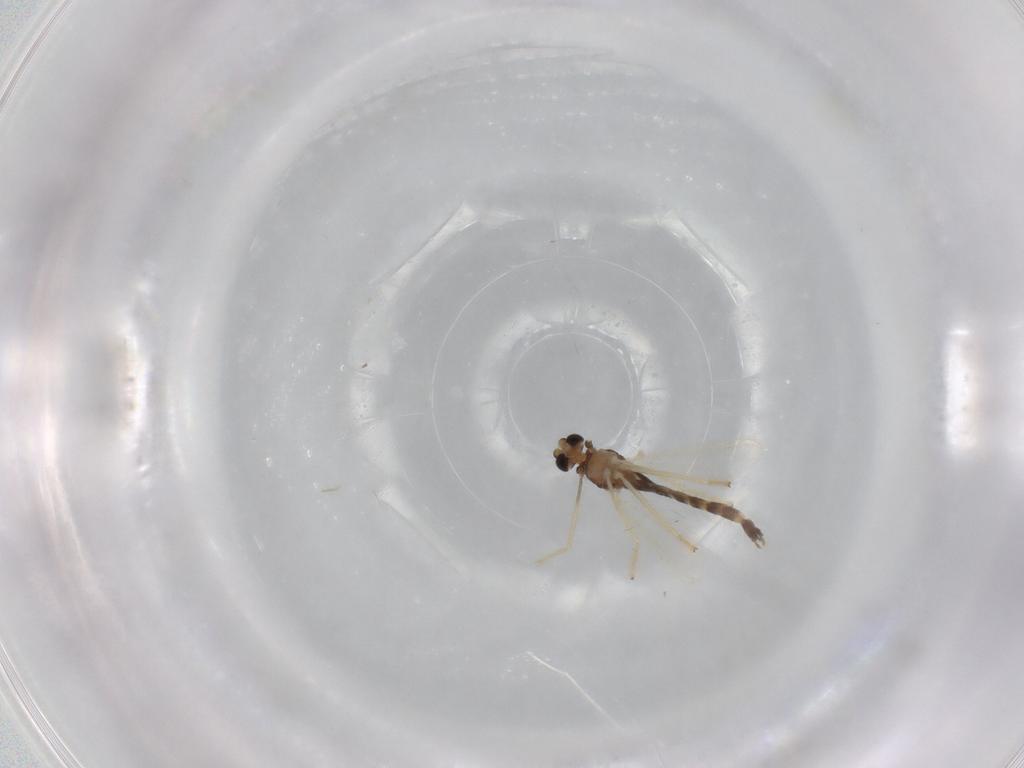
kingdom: Animalia
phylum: Arthropoda
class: Insecta
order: Diptera
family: Chironomidae
